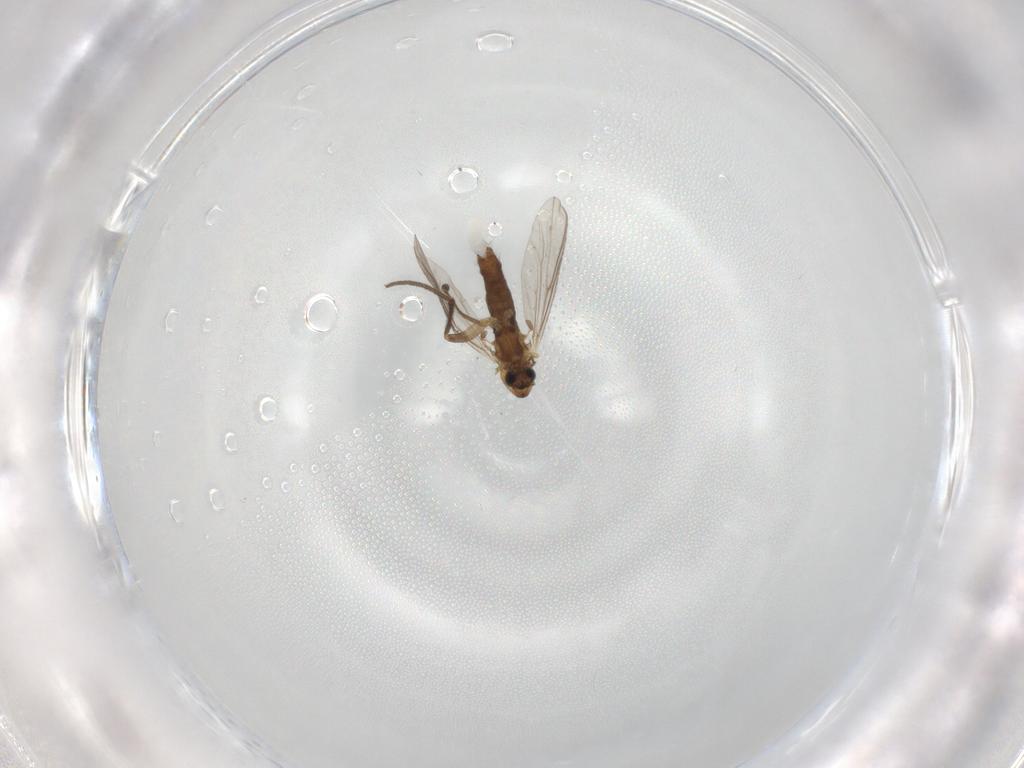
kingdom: Animalia
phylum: Arthropoda
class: Insecta
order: Diptera
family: Chironomidae
